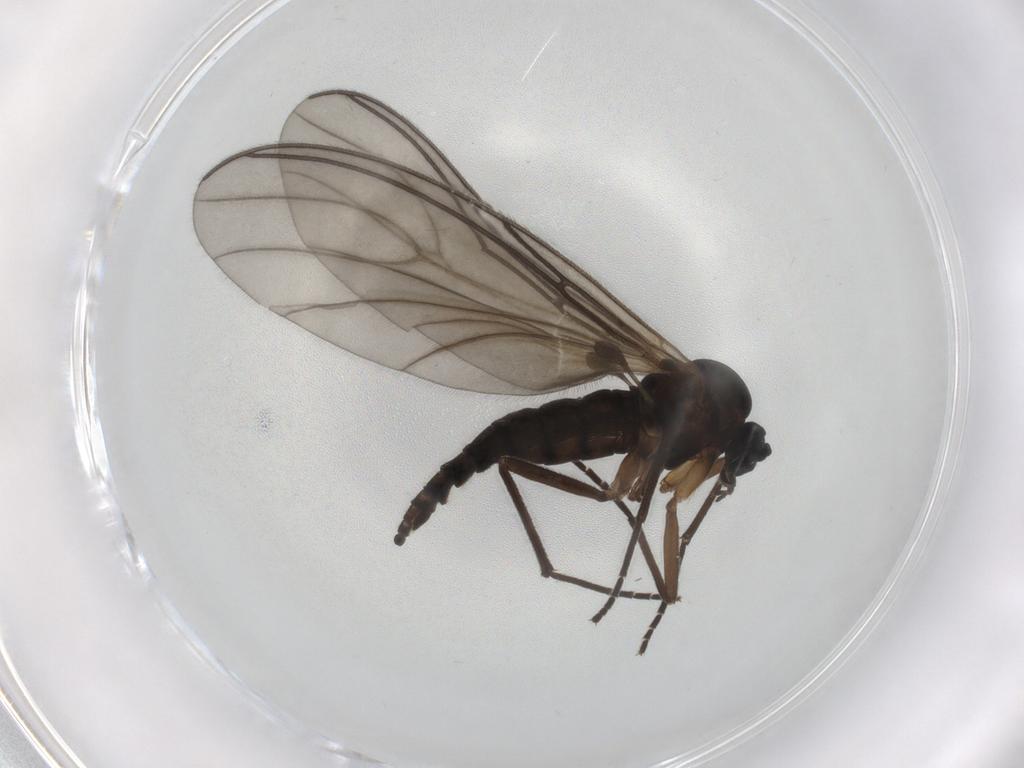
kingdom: Animalia
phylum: Arthropoda
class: Insecta
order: Diptera
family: Sciaridae
